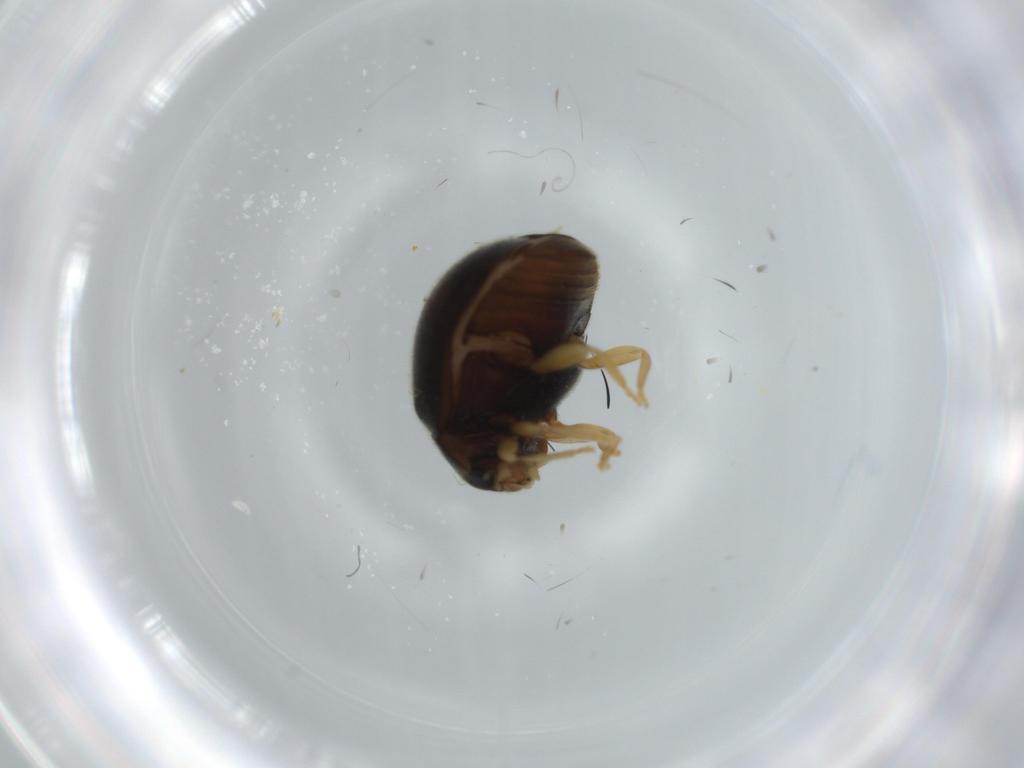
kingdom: Animalia
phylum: Arthropoda
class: Insecta
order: Coleoptera
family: Coccinellidae
